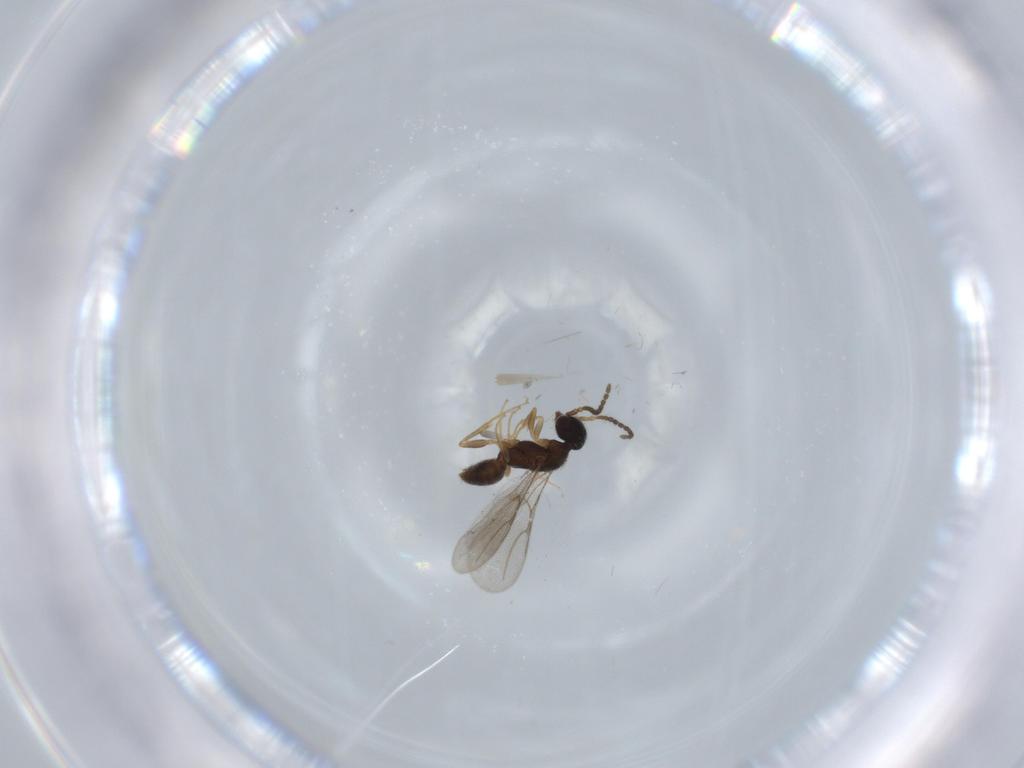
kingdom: Animalia
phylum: Arthropoda
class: Insecta
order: Hymenoptera
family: Bethylidae
